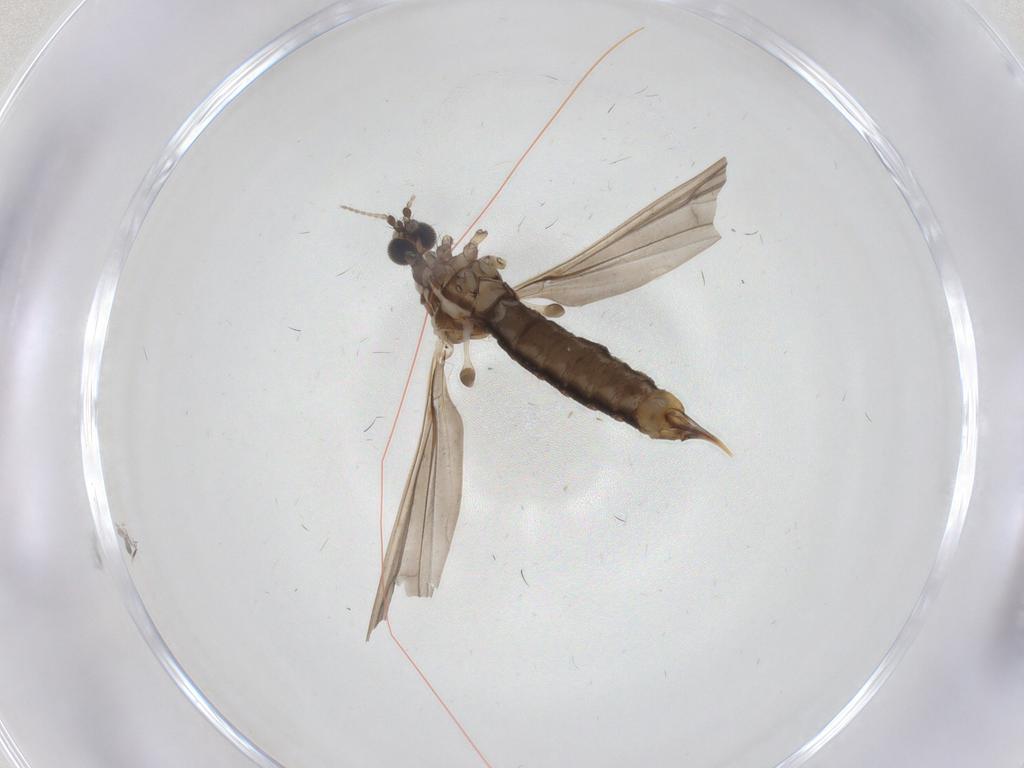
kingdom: Animalia
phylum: Arthropoda
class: Insecta
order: Diptera
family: Limoniidae
